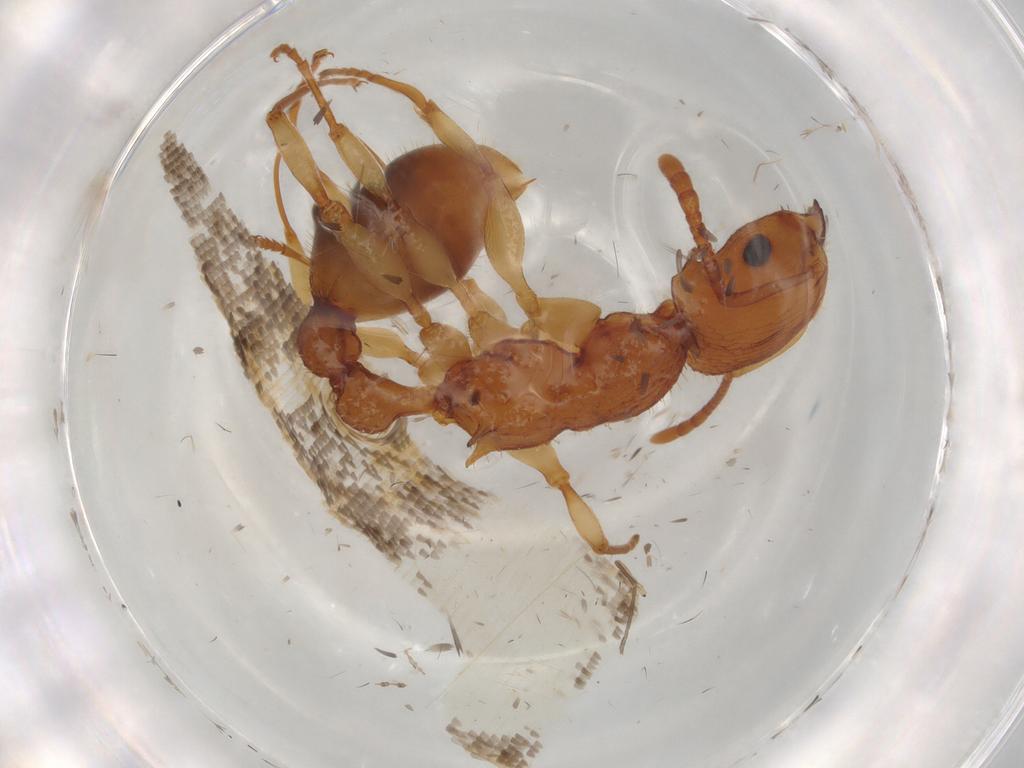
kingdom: Animalia
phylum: Arthropoda
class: Insecta
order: Hymenoptera
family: Formicidae
